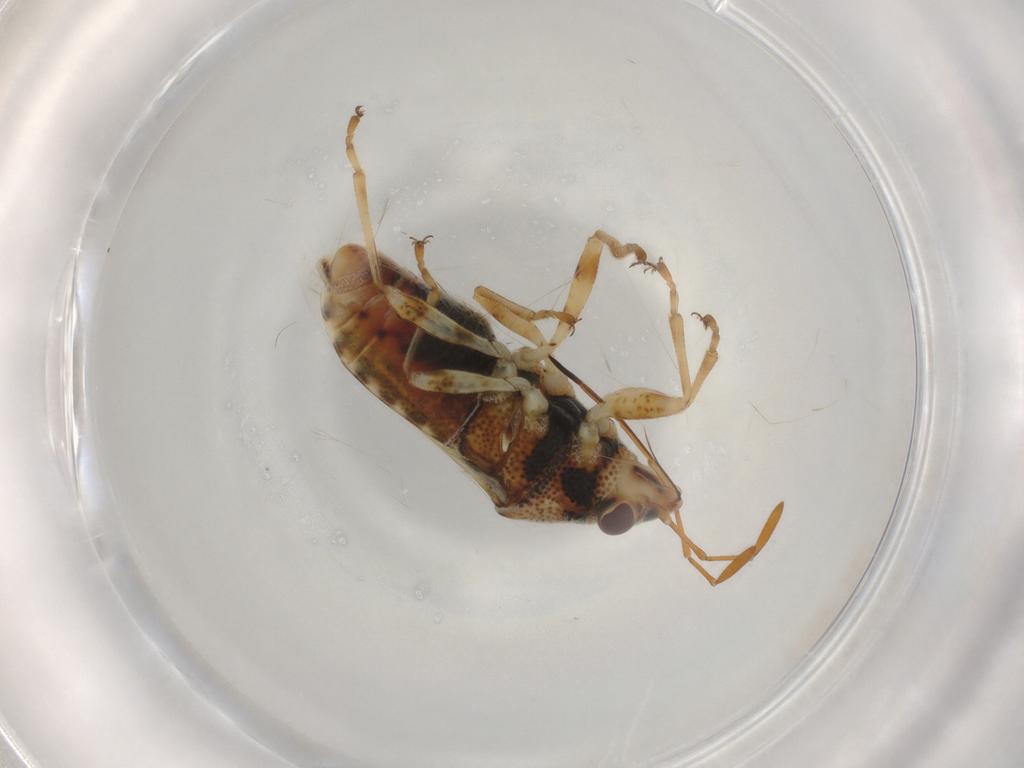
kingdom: Animalia
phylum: Arthropoda
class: Insecta
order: Hemiptera
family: Lygaeidae
